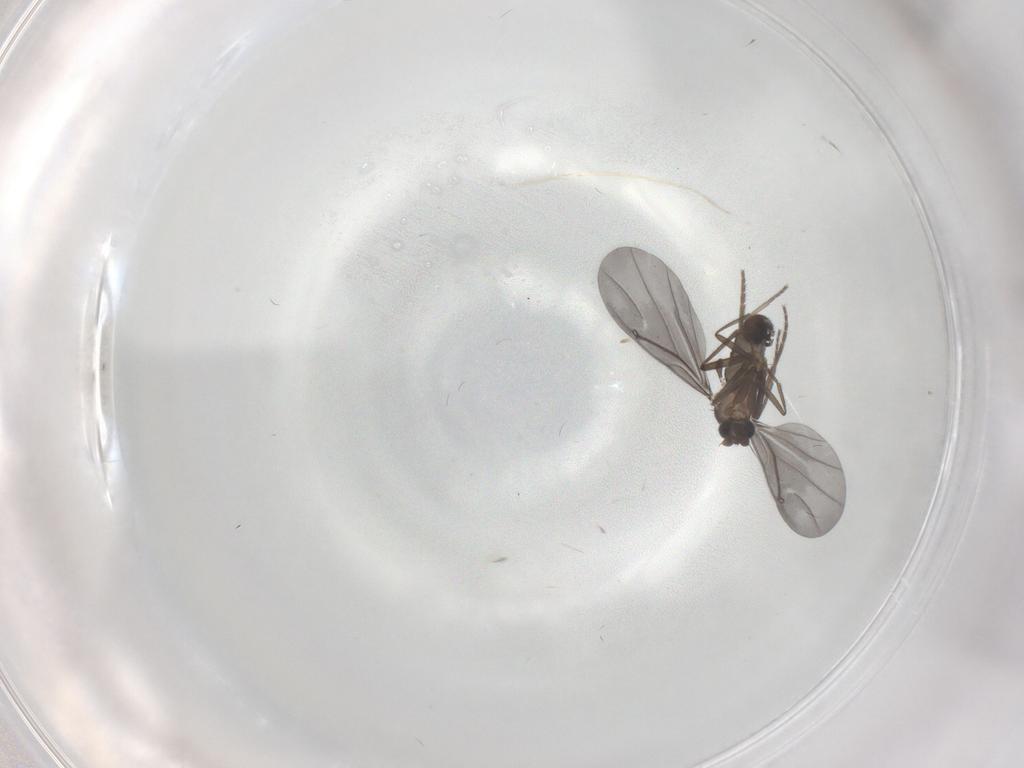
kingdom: Animalia
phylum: Arthropoda
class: Insecta
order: Diptera
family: Phoridae
